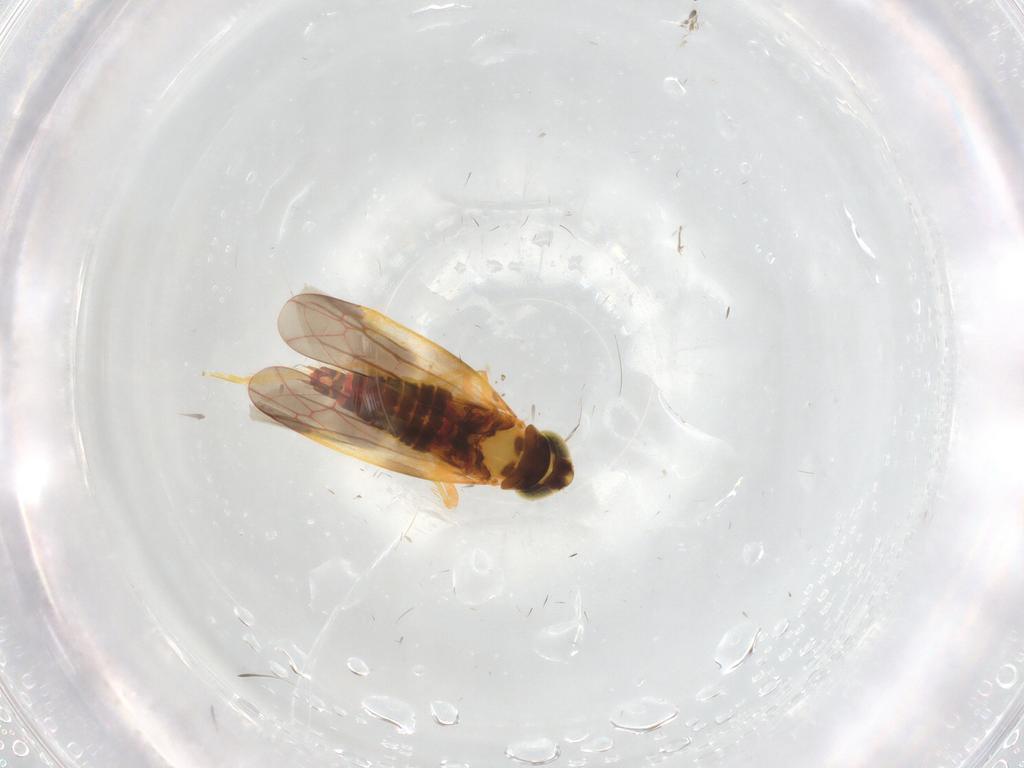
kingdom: Animalia
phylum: Arthropoda
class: Insecta
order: Hemiptera
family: Cicadellidae
